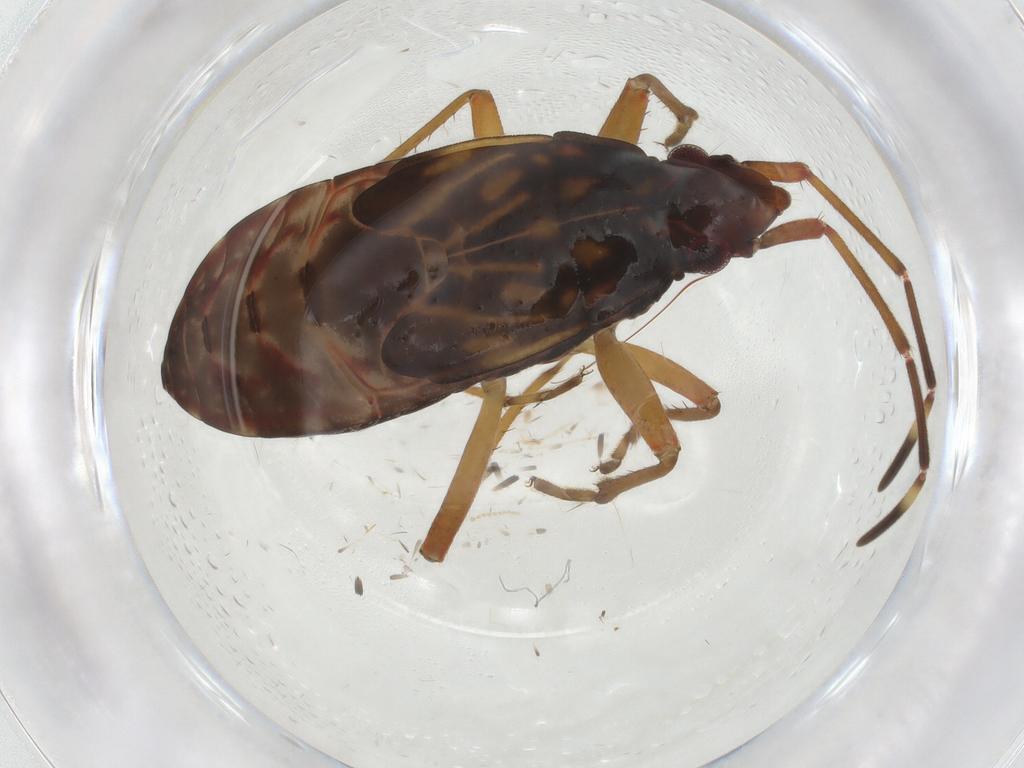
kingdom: Animalia
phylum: Arthropoda
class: Insecta
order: Hemiptera
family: Rhyparochromidae
